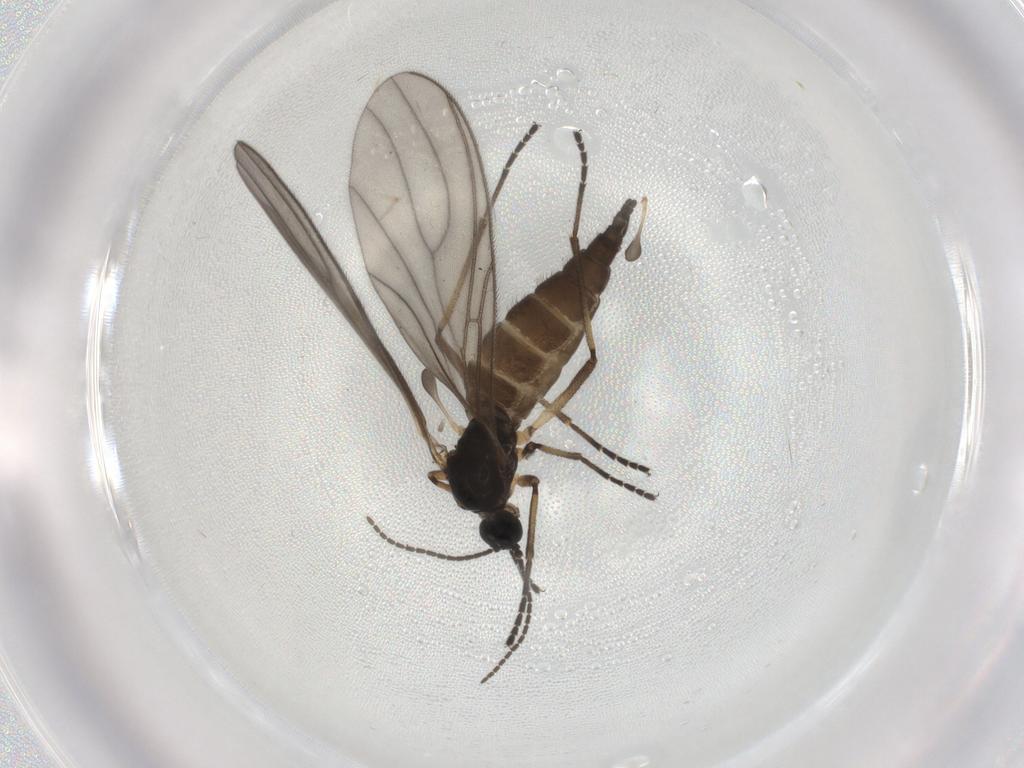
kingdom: Animalia
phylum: Arthropoda
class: Insecta
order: Diptera
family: Sciaridae
